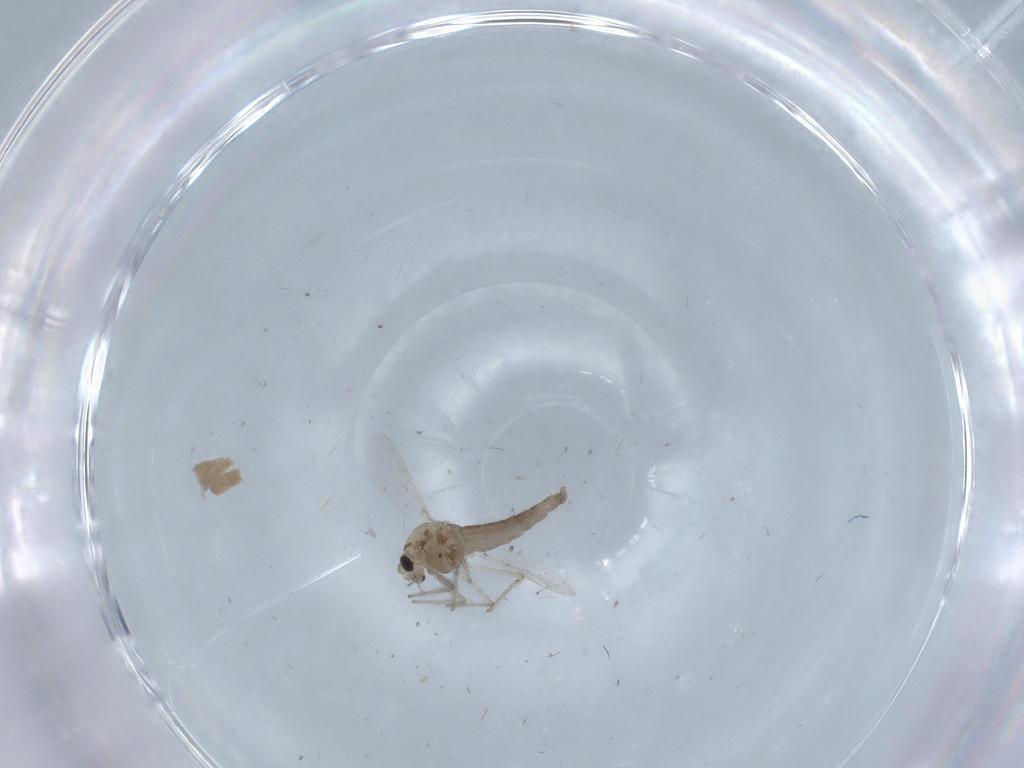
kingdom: Animalia
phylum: Arthropoda
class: Insecta
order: Diptera
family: Chironomidae
